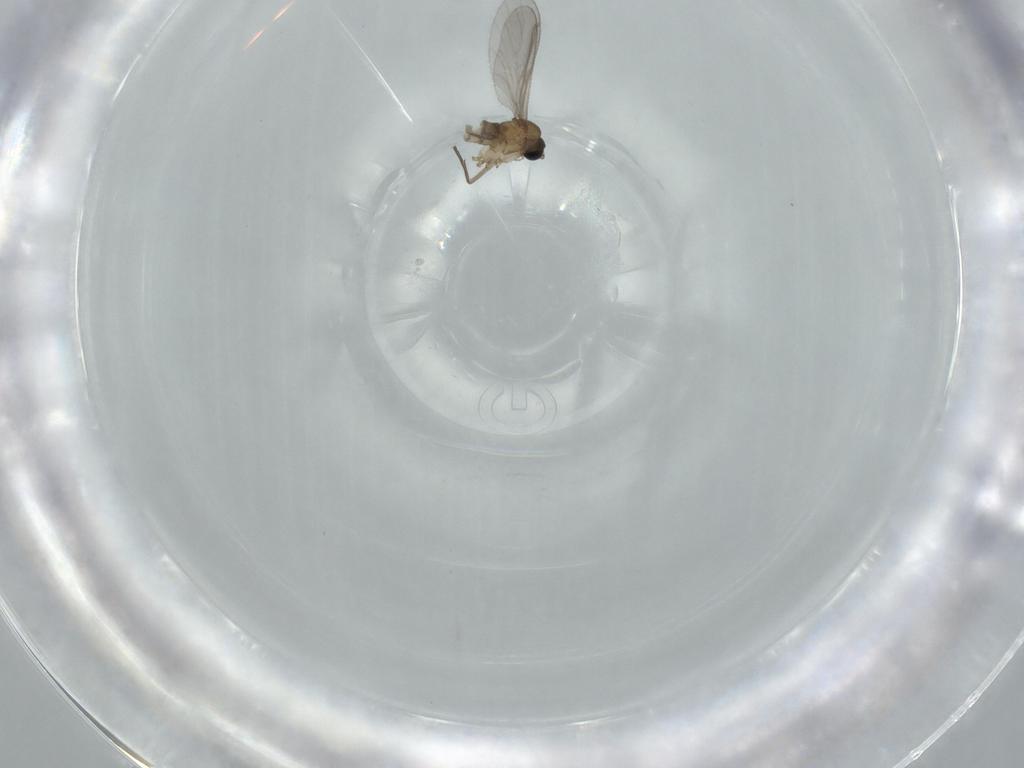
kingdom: Animalia
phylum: Arthropoda
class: Insecta
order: Diptera
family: Sciaridae
